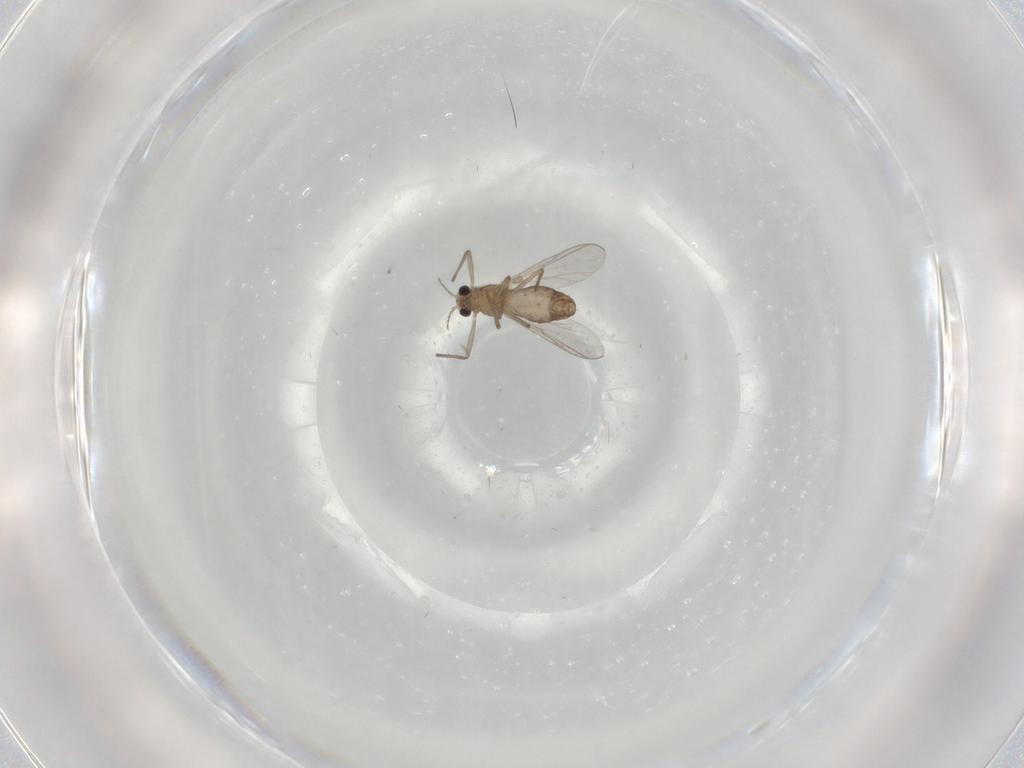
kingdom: Animalia
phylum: Arthropoda
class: Insecta
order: Diptera
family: Chironomidae
